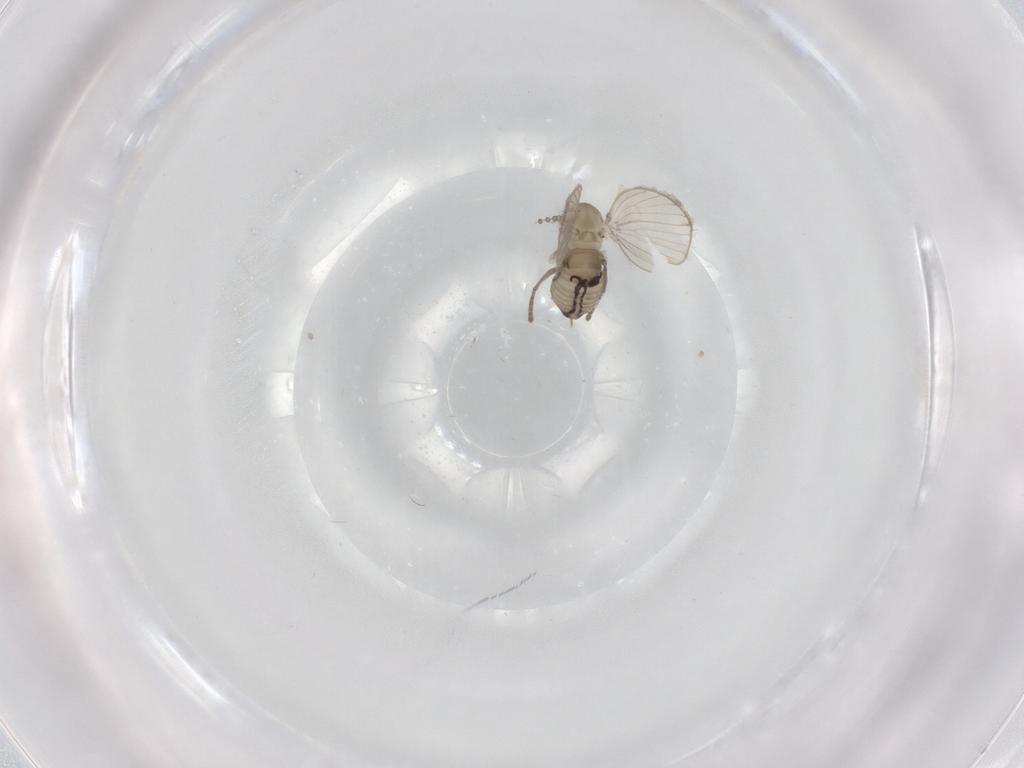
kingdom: Animalia
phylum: Arthropoda
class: Insecta
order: Diptera
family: Psychodidae
